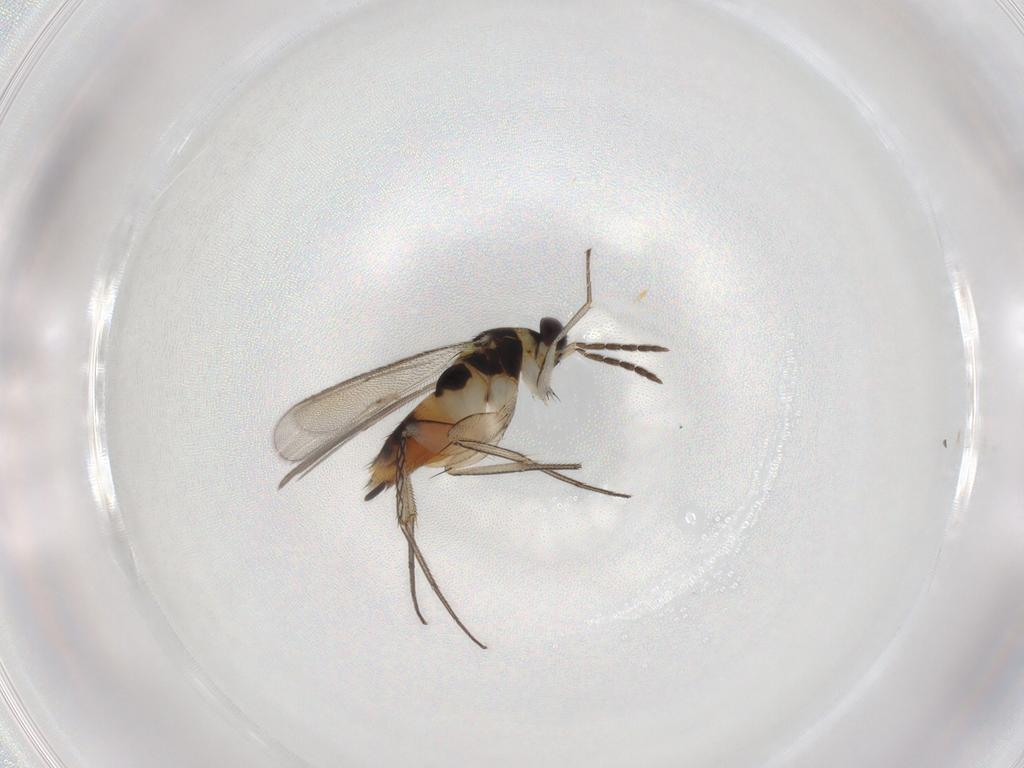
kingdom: Animalia
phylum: Arthropoda
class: Insecta
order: Hymenoptera
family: Eulophidae
